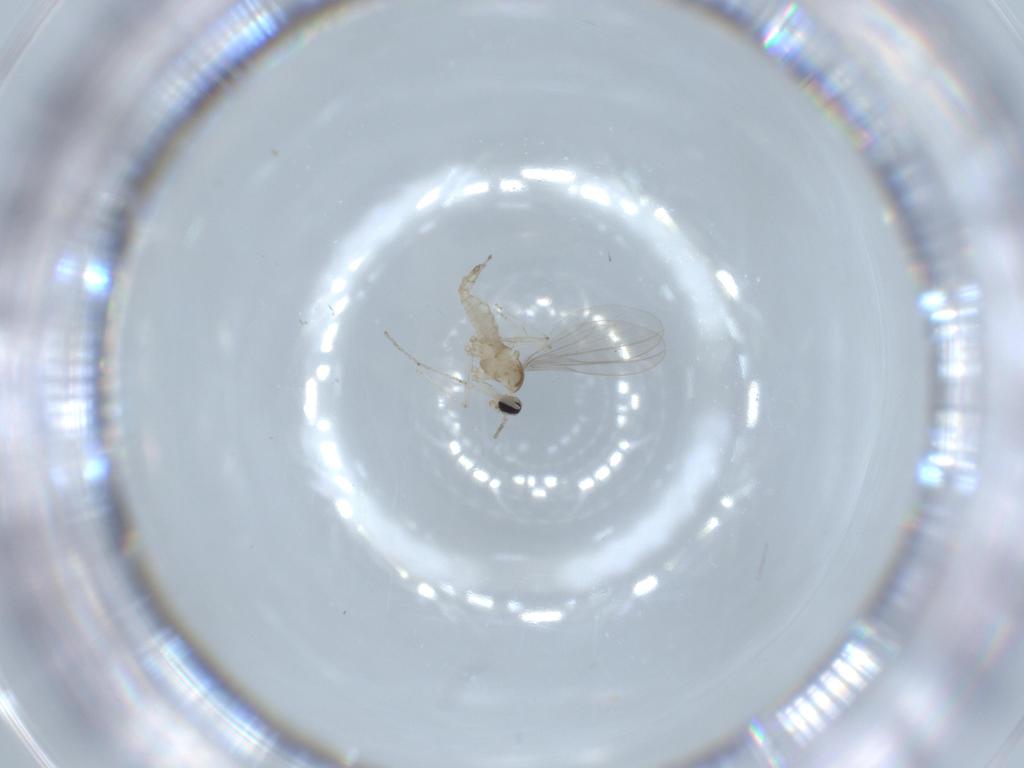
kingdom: Animalia
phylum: Arthropoda
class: Insecta
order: Diptera
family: Cecidomyiidae
